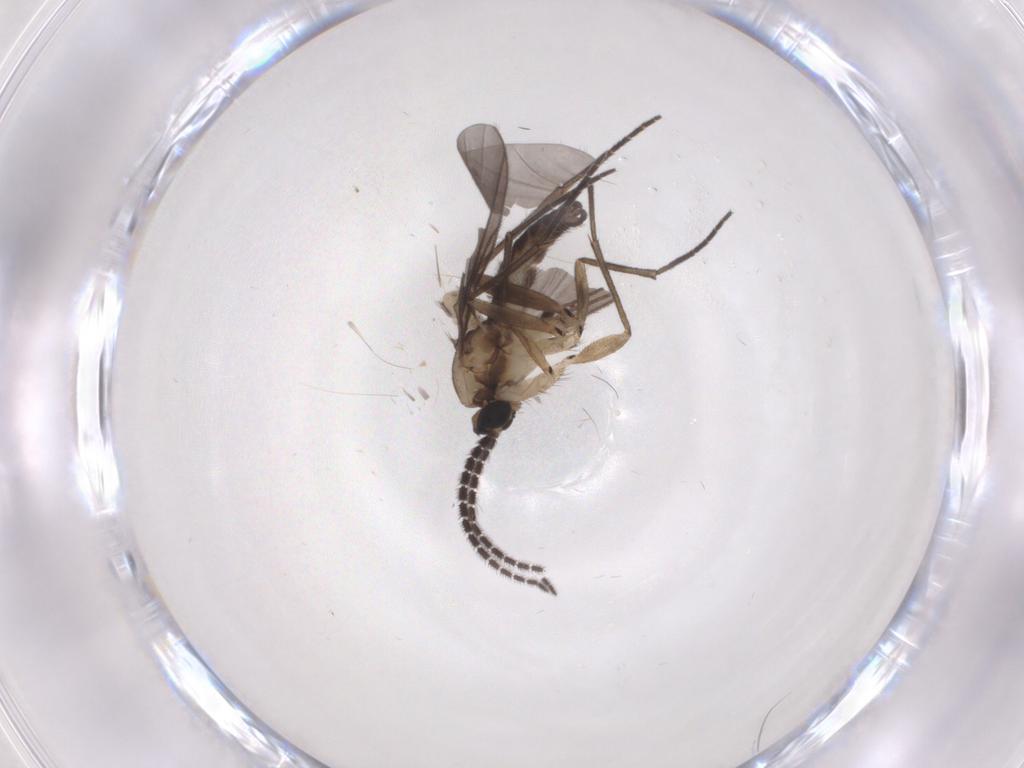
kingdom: Animalia
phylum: Arthropoda
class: Insecta
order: Diptera
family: Sciaridae
